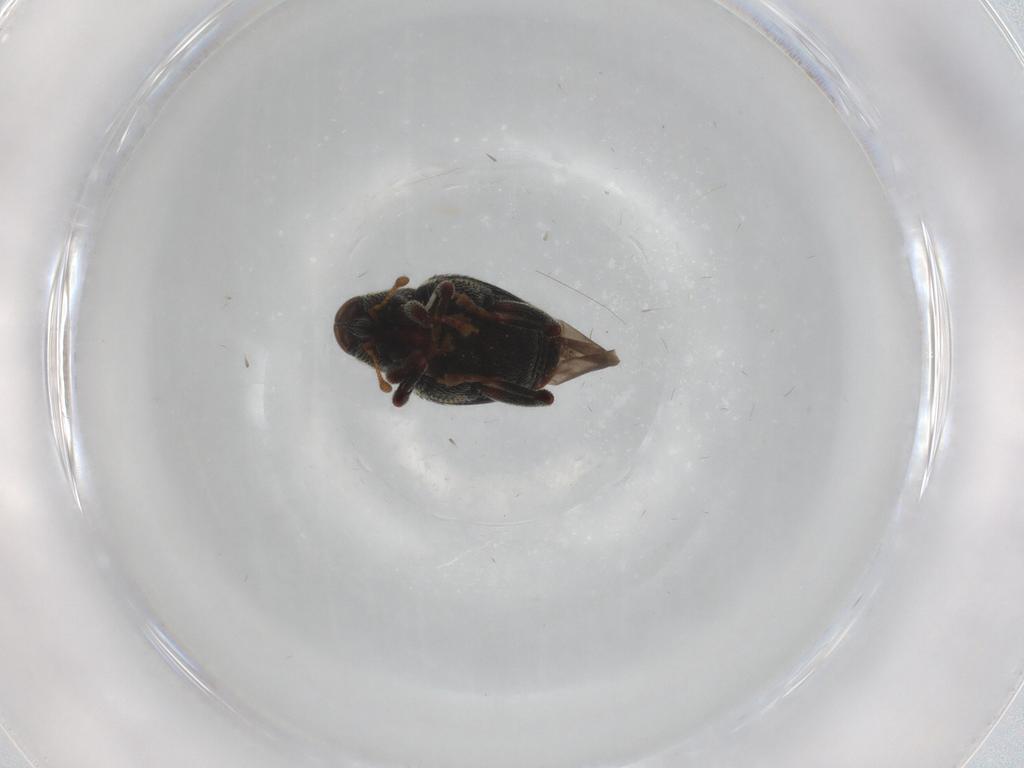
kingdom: Animalia
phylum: Arthropoda
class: Insecta
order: Coleoptera
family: Curculionidae
